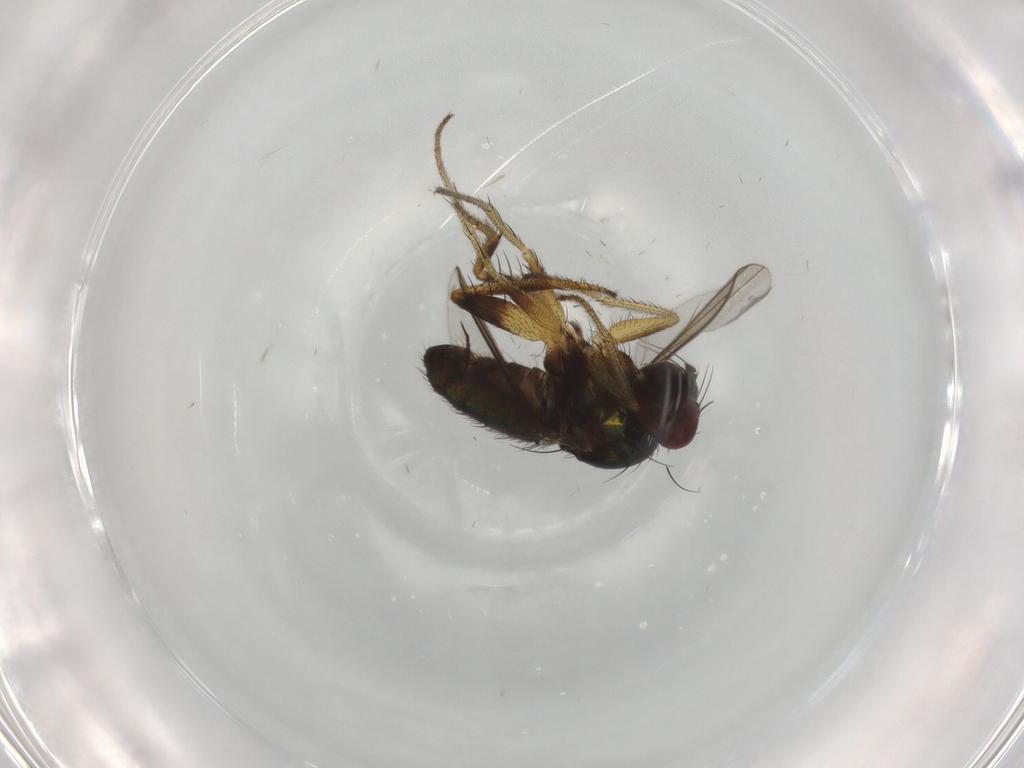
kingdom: Animalia
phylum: Arthropoda
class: Insecta
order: Diptera
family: Dolichopodidae
